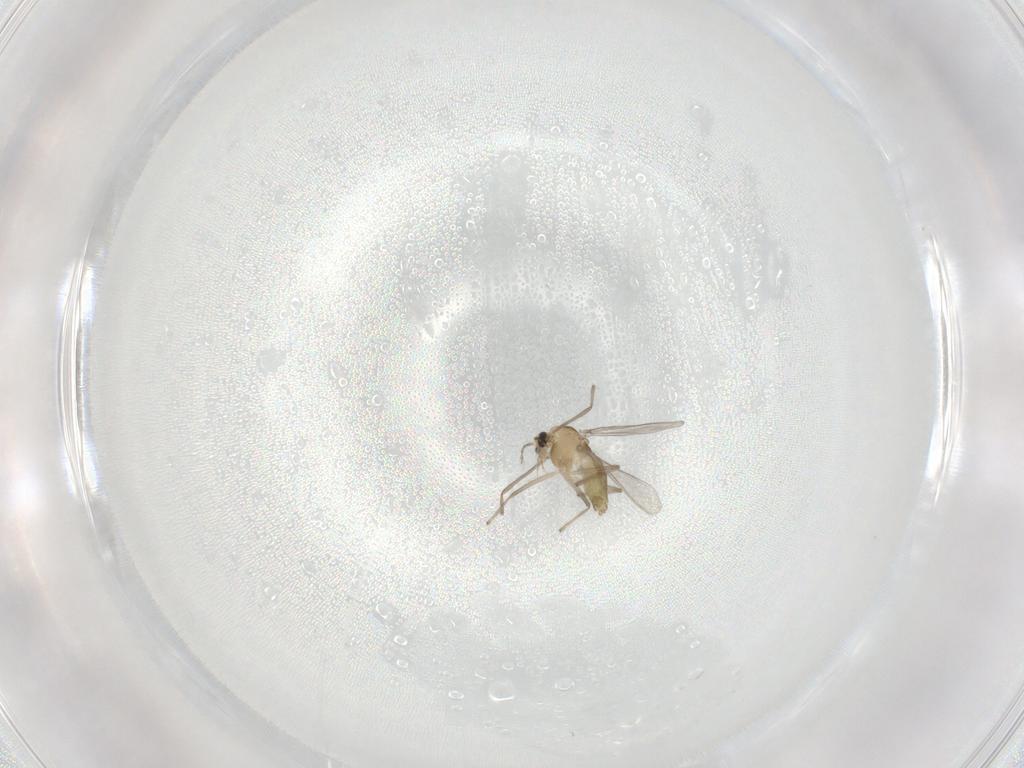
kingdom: Animalia
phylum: Arthropoda
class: Insecta
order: Diptera
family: Chironomidae
